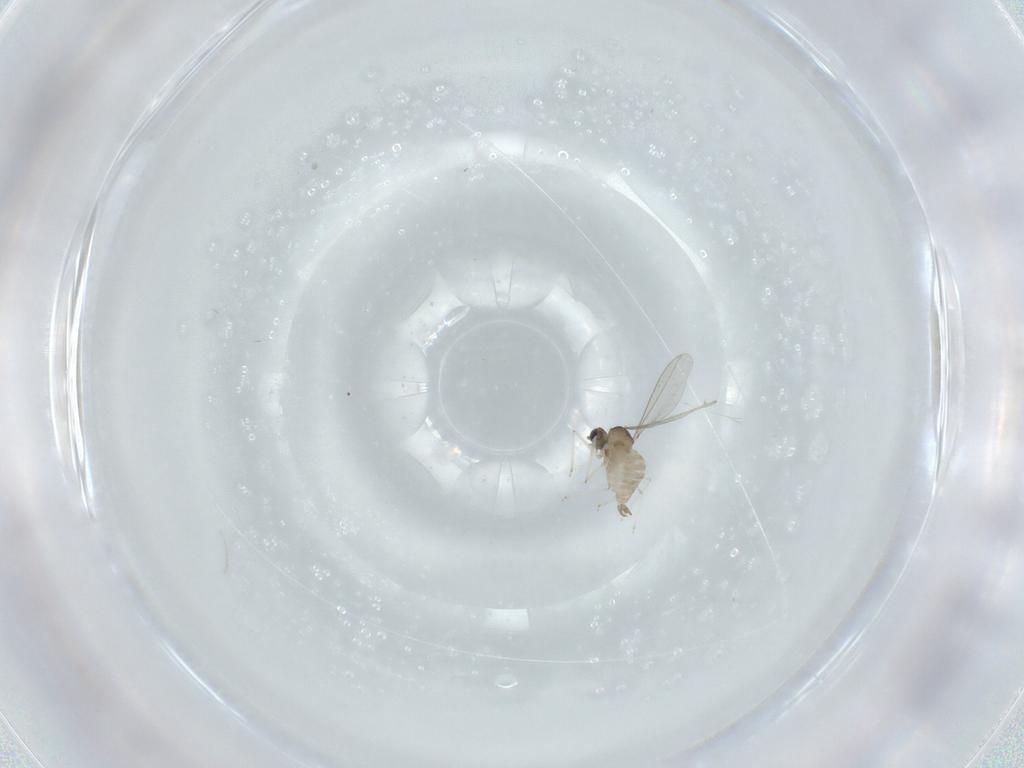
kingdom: Animalia
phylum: Arthropoda
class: Insecta
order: Diptera
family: Cecidomyiidae
